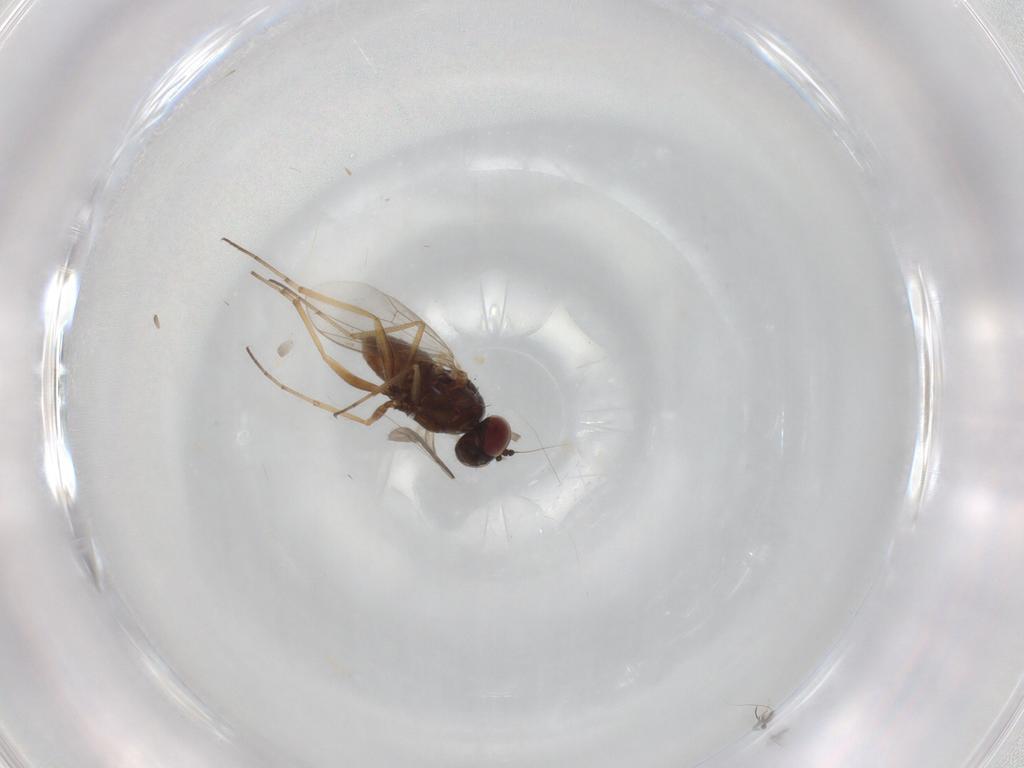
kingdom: Animalia
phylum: Arthropoda
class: Insecta
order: Diptera
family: Dolichopodidae
